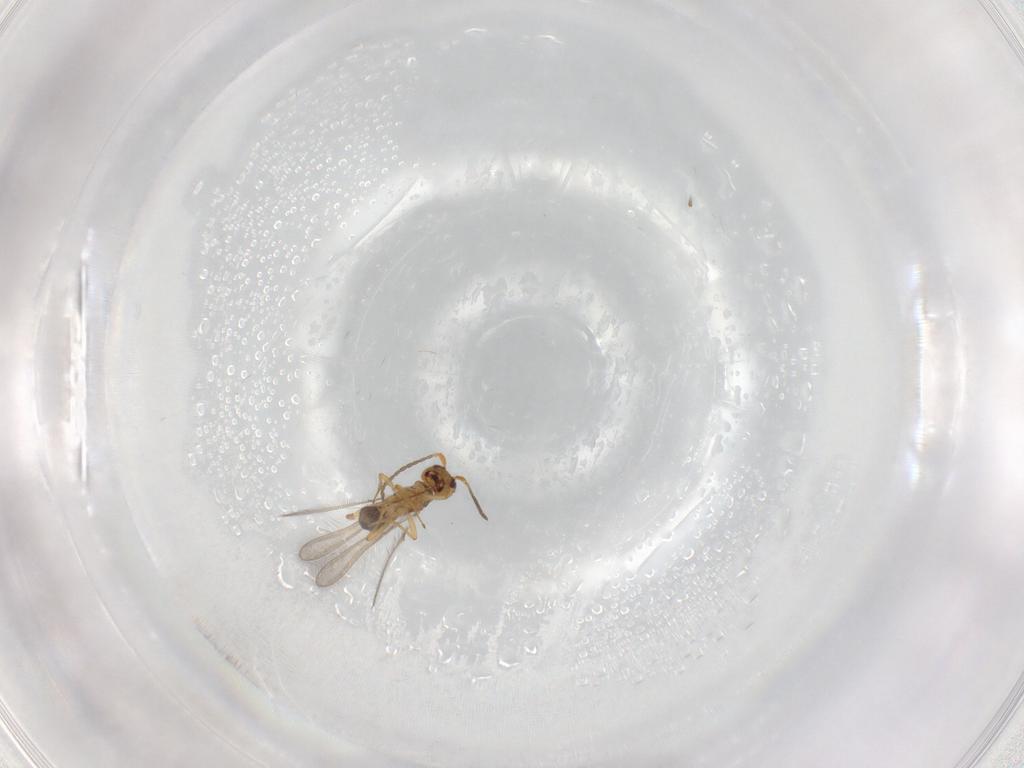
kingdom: Animalia
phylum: Arthropoda
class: Insecta
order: Hymenoptera
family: Mymaridae
